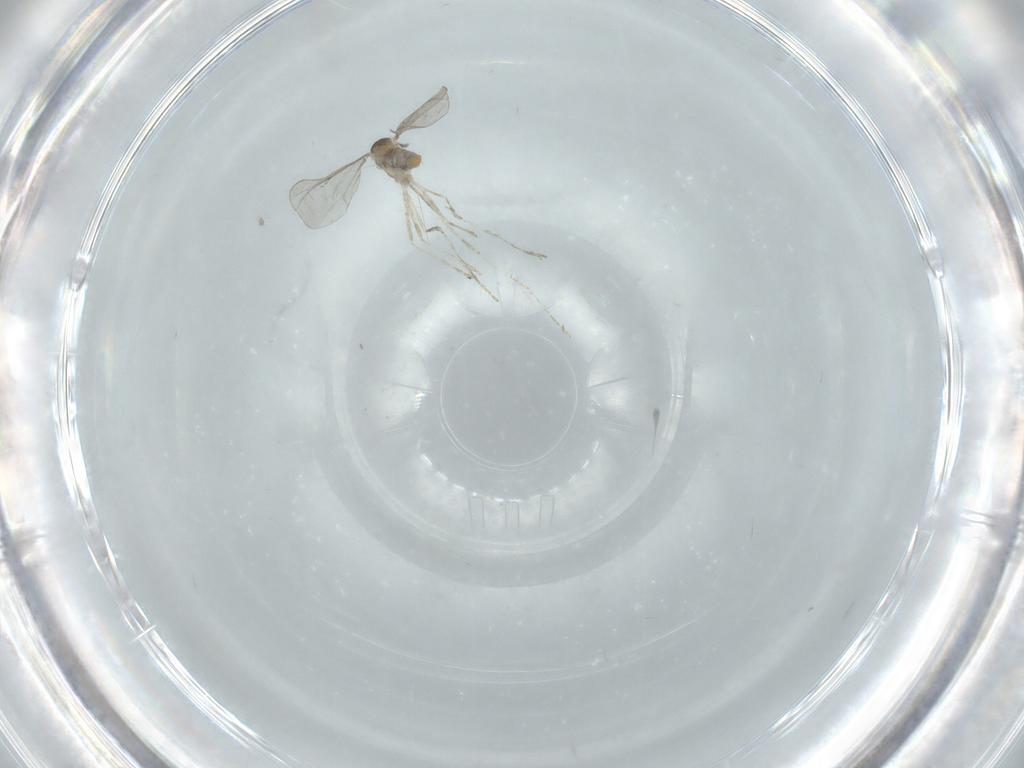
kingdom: Animalia
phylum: Arthropoda
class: Insecta
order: Diptera
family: Cecidomyiidae
